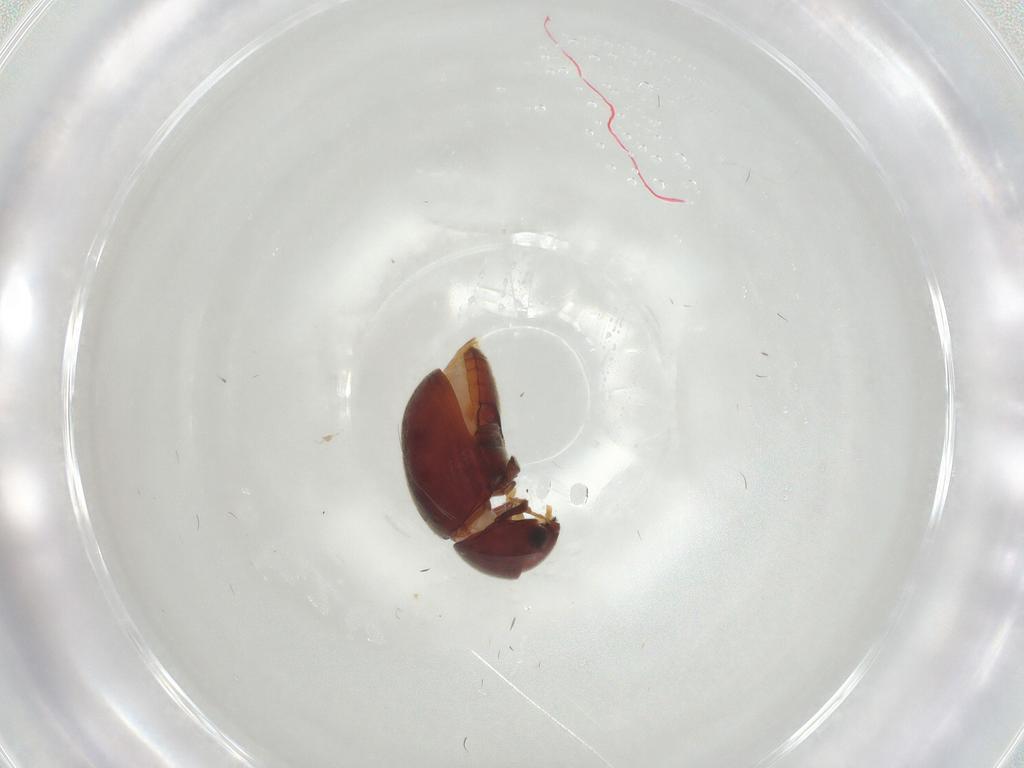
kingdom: Animalia
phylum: Arthropoda
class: Insecta
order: Coleoptera
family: Ptinidae
